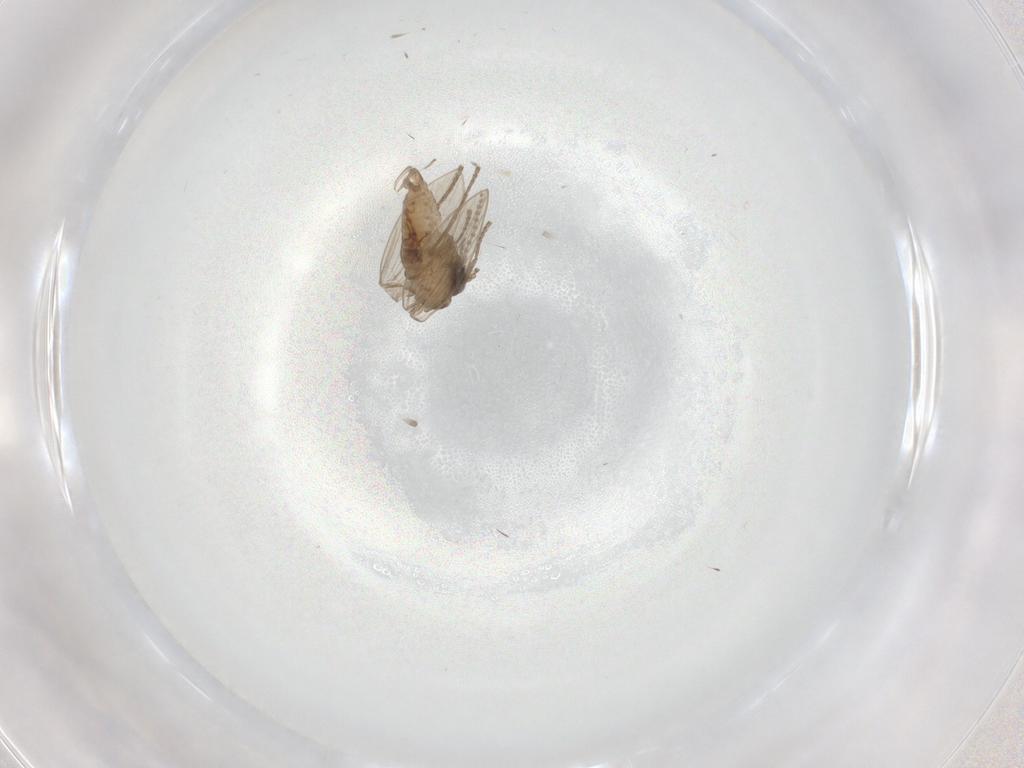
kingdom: Animalia
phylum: Arthropoda
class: Insecta
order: Diptera
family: Psychodidae
